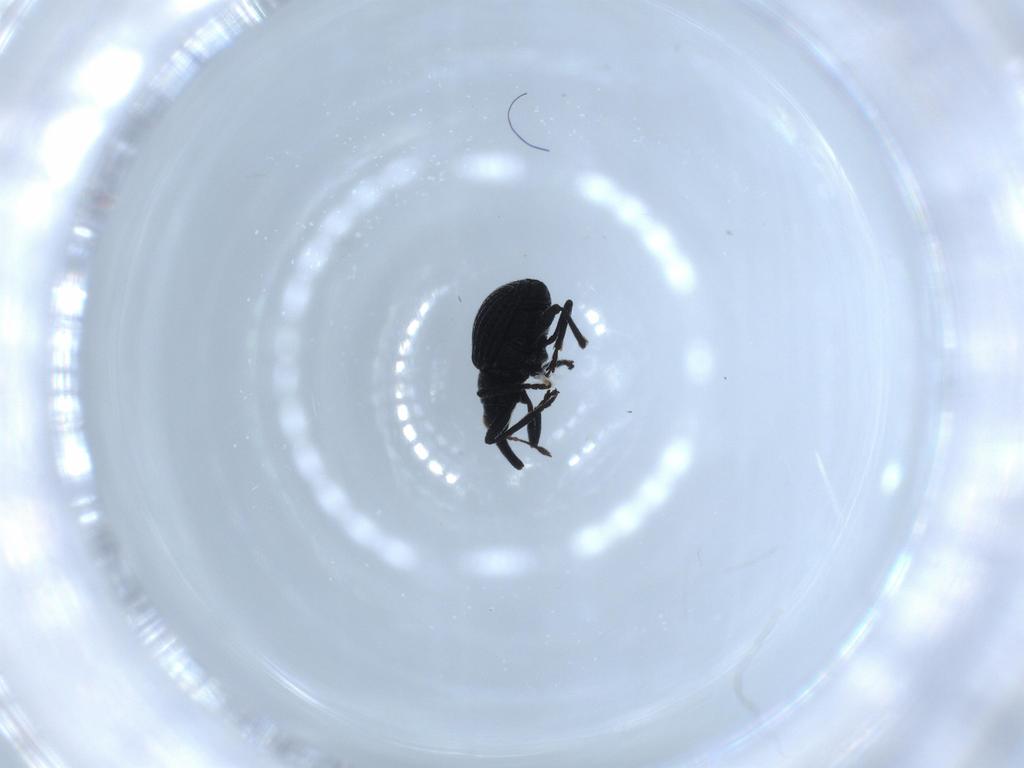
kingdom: Animalia
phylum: Arthropoda
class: Insecta
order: Coleoptera
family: Brentidae
